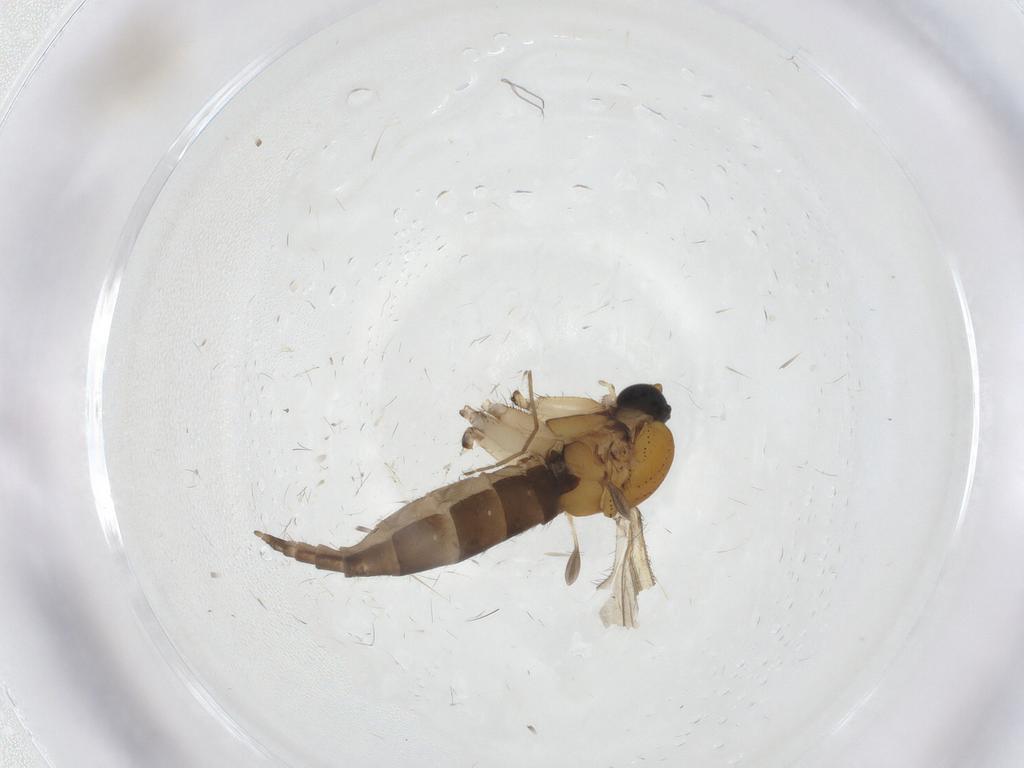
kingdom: Animalia
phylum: Arthropoda
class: Insecta
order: Diptera
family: Sciaridae
